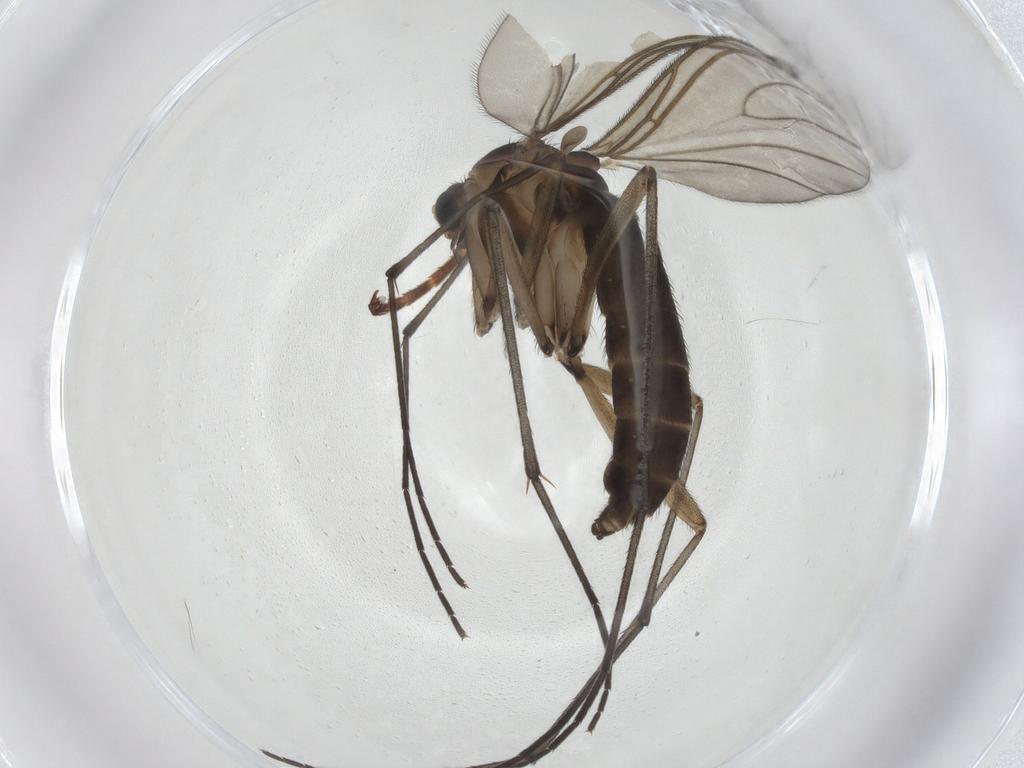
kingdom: Animalia
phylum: Arthropoda
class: Insecta
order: Diptera
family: Sciaridae
